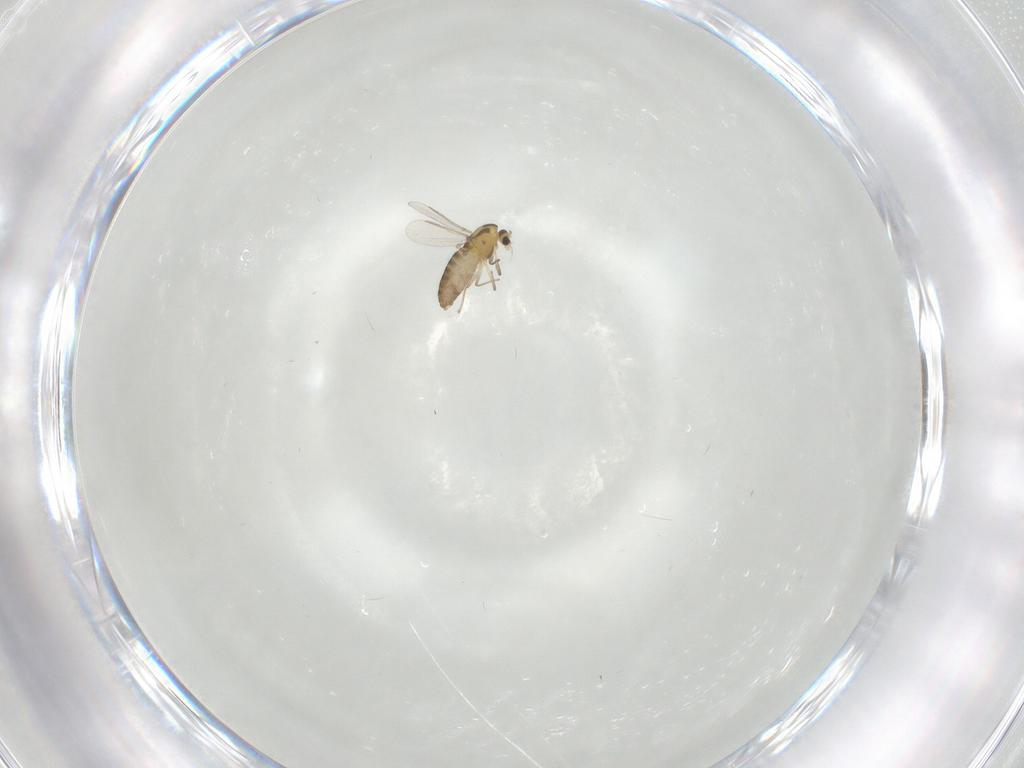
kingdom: Animalia
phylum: Arthropoda
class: Insecta
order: Diptera
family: Chironomidae
